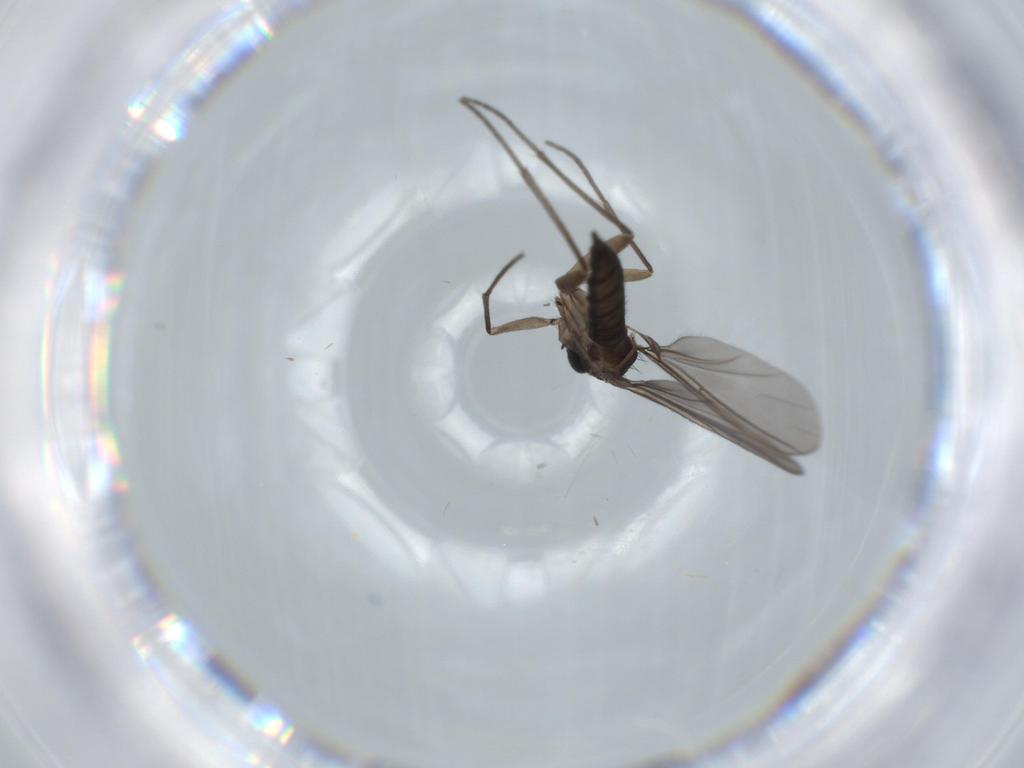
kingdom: Animalia
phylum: Arthropoda
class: Insecta
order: Diptera
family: Sciaridae
